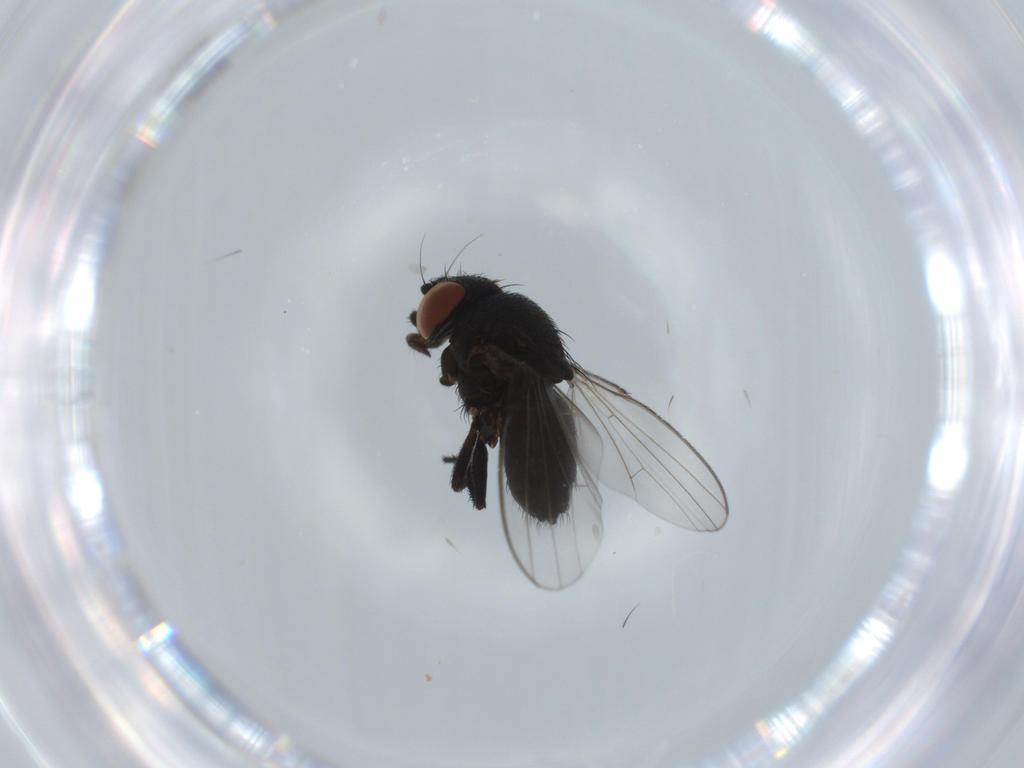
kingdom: Animalia
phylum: Arthropoda
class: Insecta
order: Diptera
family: Milichiidae
